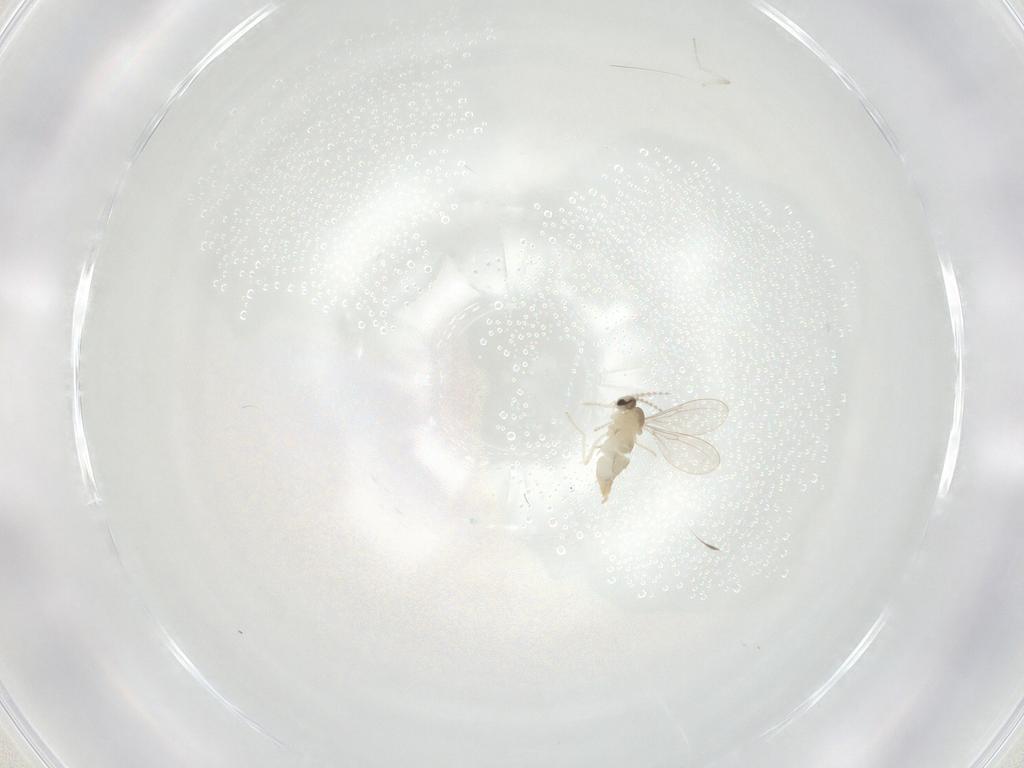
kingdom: Animalia
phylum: Arthropoda
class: Insecta
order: Diptera
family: Cecidomyiidae
